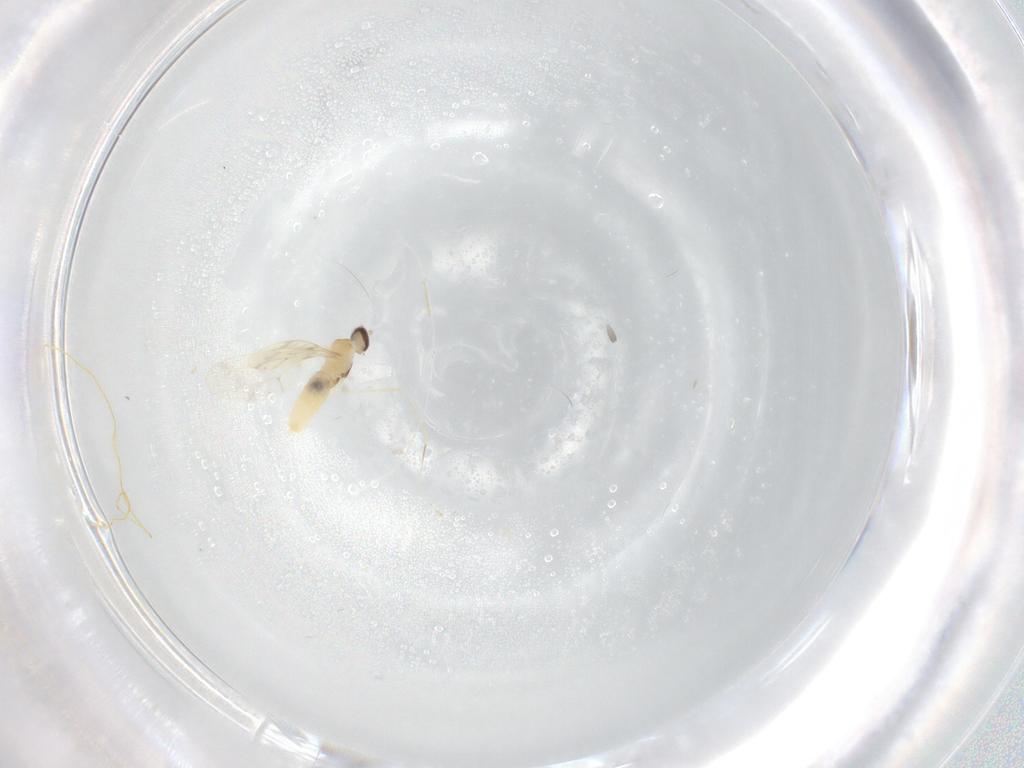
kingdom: Animalia
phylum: Arthropoda
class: Insecta
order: Diptera
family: Cecidomyiidae
